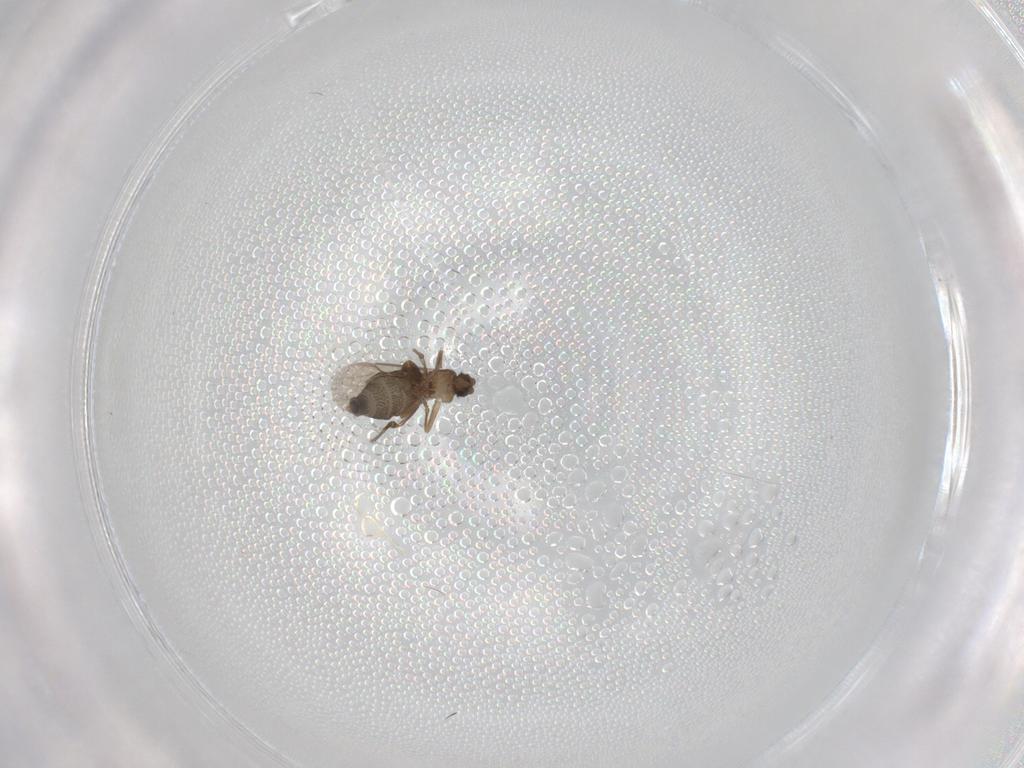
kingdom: Animalia
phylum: Arthropoda
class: Insecta
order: Diptera
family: Phoridae
